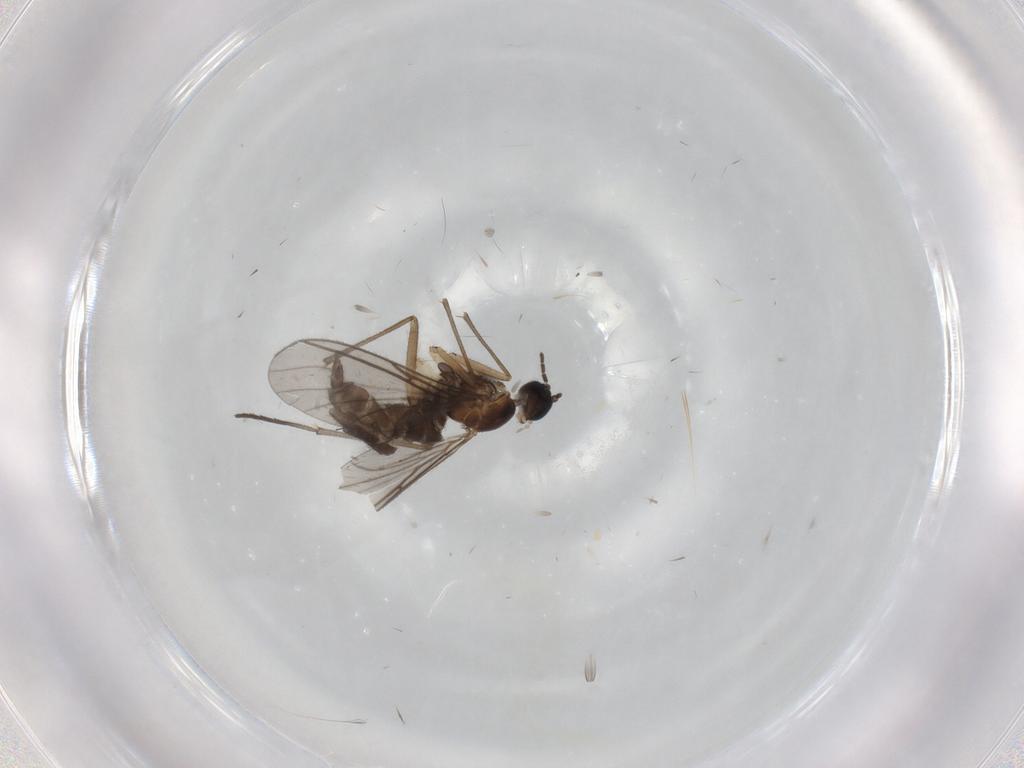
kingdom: Animalia
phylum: Arthropoda
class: Insecta
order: Diptera
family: Sciaridae
